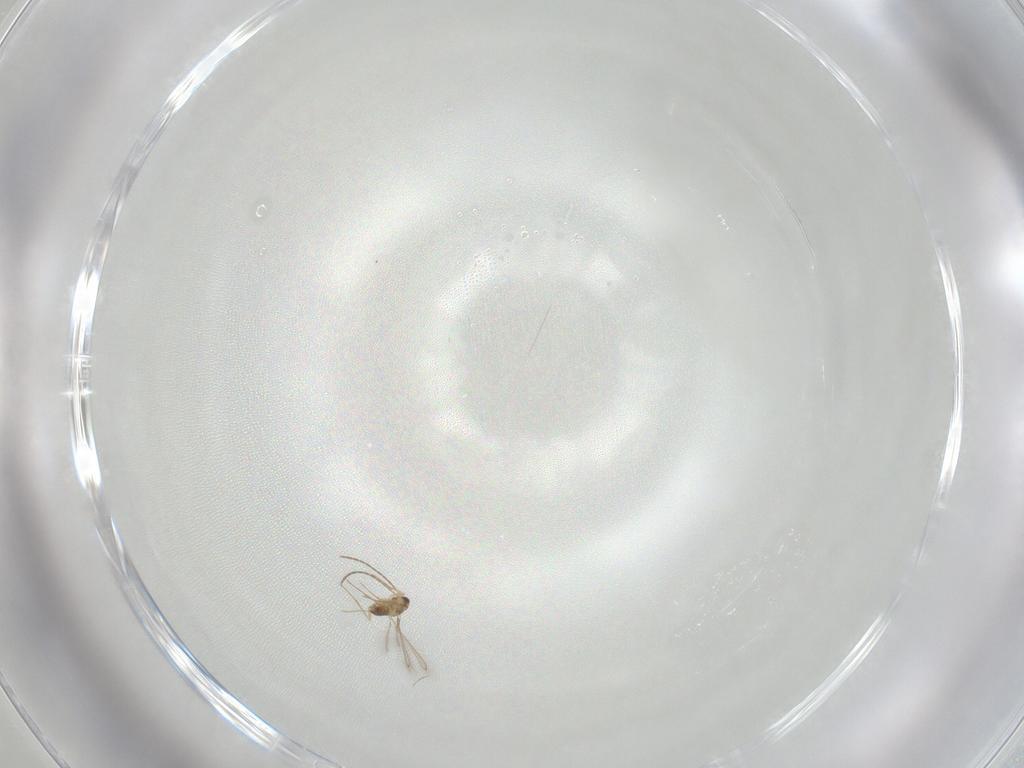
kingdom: Animalia
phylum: Arthropoda
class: Insecta
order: Hymenoptera
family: Mymaridae
